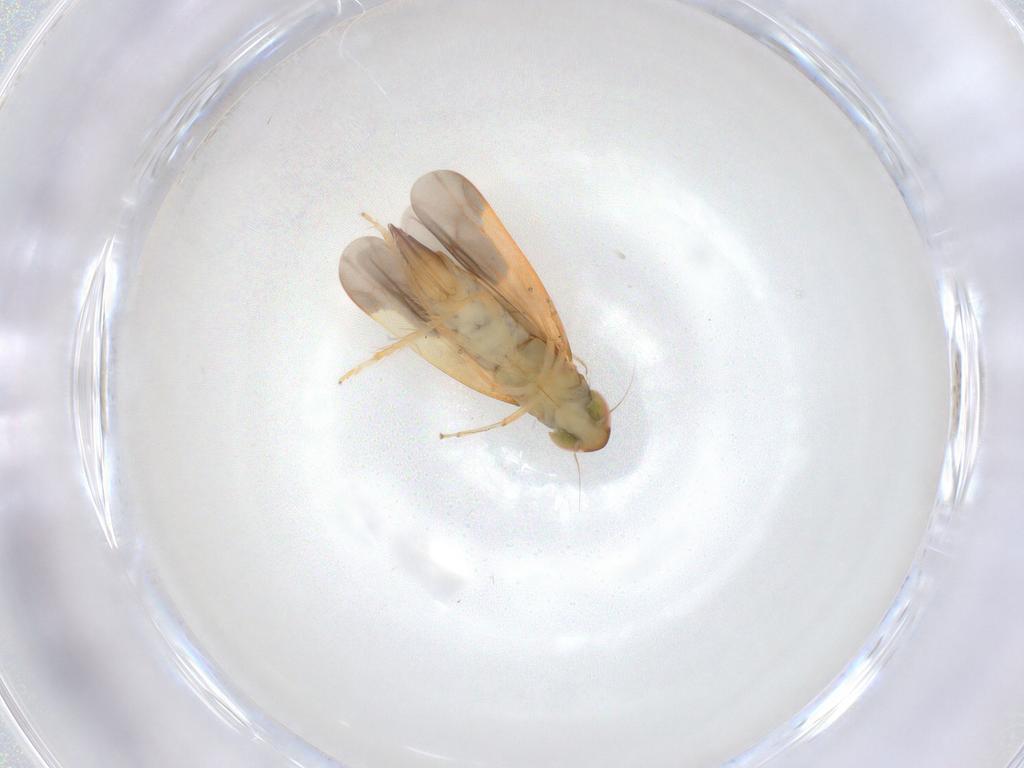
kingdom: Animalia
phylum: Arthropoda
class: Insecta
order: Hemiptera
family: Cicadellidae
